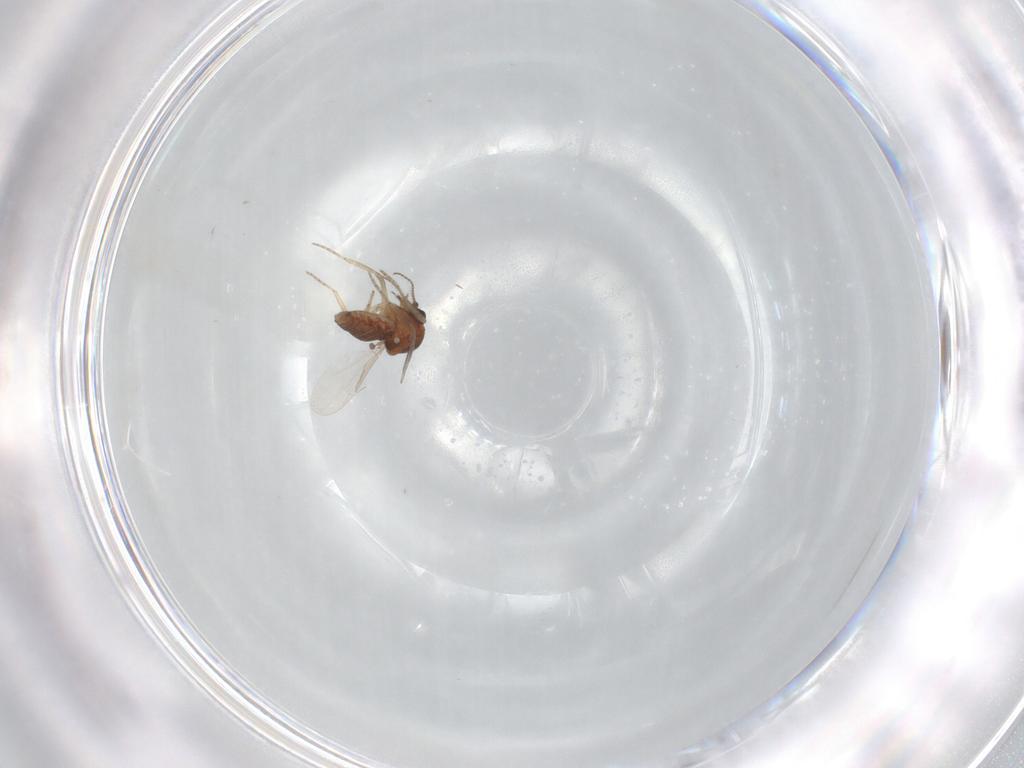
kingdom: Animalia
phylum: Arthropoda
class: Insecta
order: Diptera
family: Ceratopogonidae
